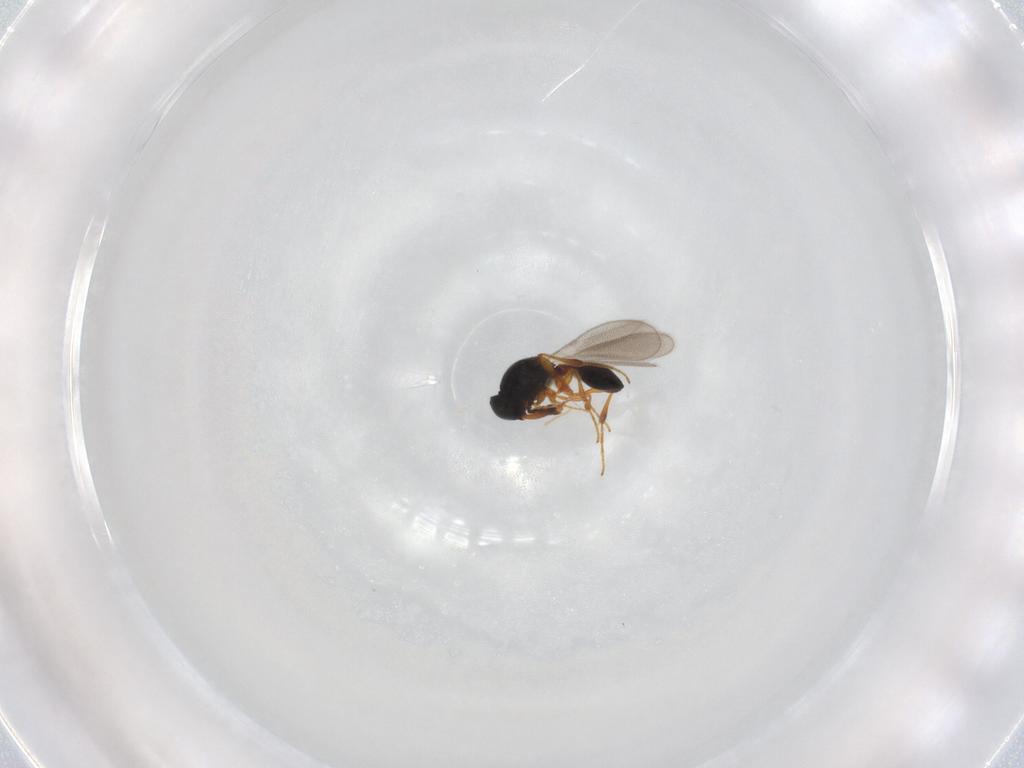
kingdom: Animalia
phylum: Arthropoda
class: Insecta
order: Hymenoptera
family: Platygastridae
